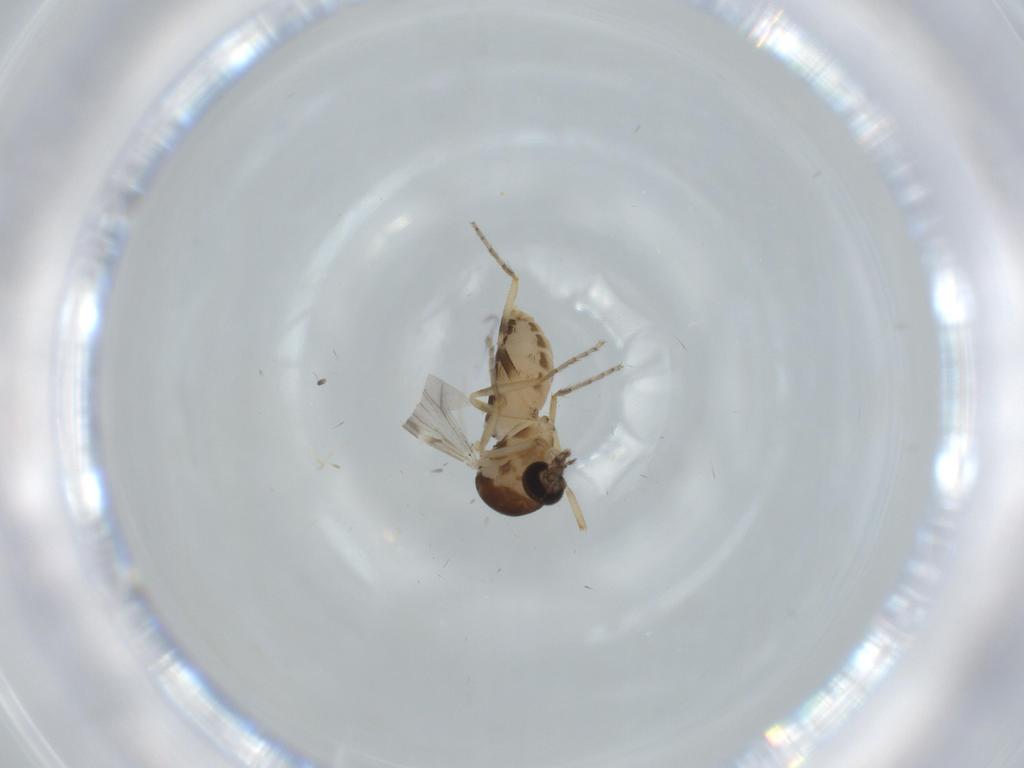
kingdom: Animalia
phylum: Arthropoda
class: Insecta
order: Diptera
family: Ceratopogonidae
